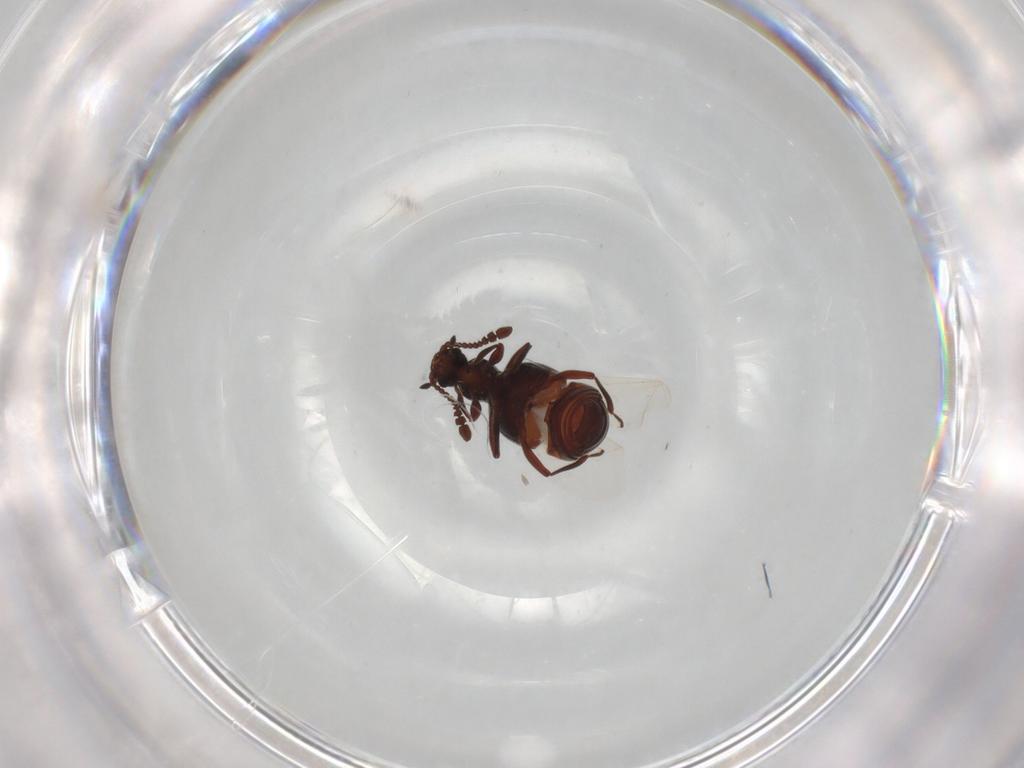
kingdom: Animalia
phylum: Arthropoda
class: Insecta
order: Coleoptera
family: Staphylinidae
